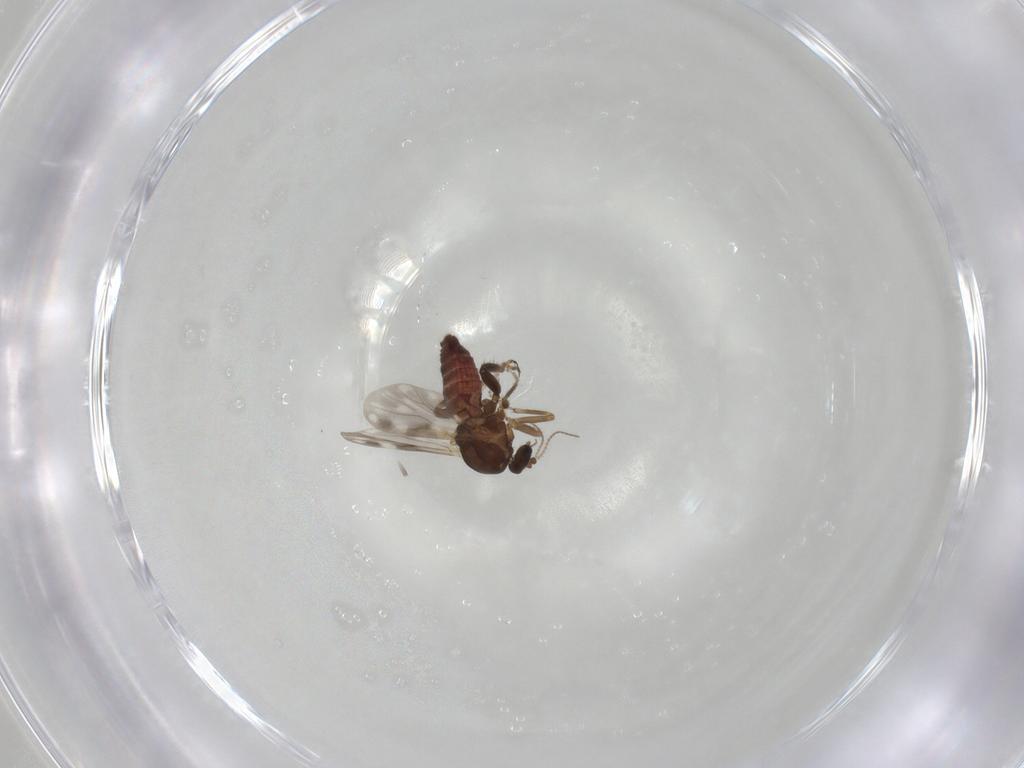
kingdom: Animalia
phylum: Arthropoda
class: Insecta
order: Diptera
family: Ceratopogonidae
